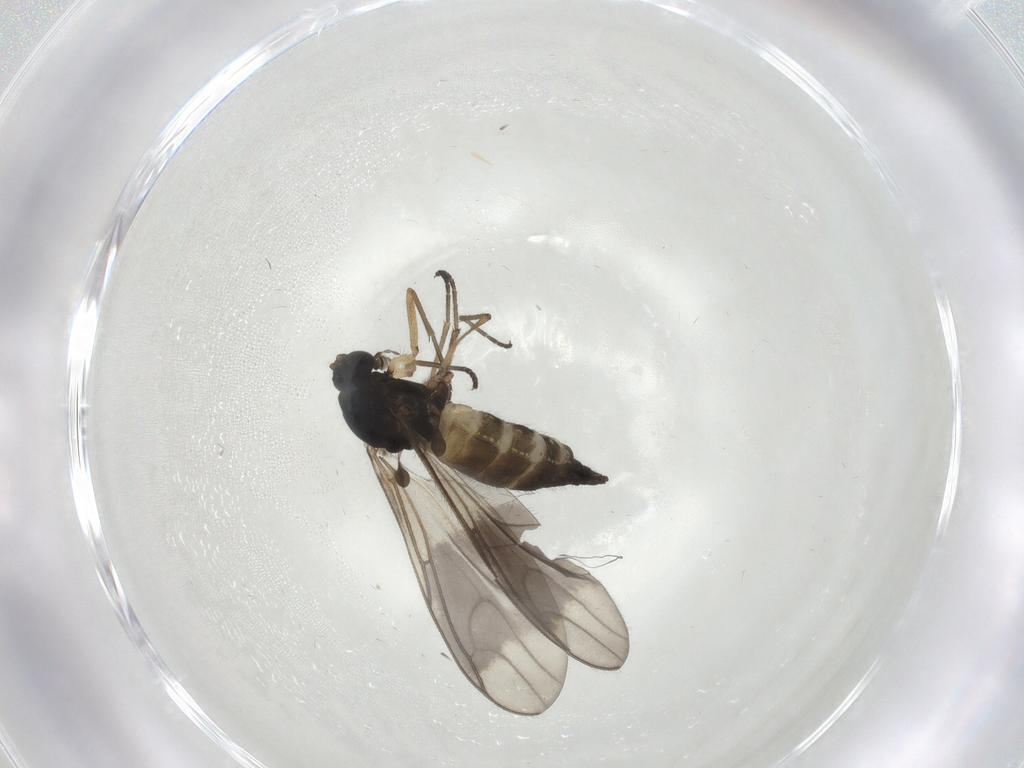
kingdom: Animalia
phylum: Arthropoda
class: Insecta
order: Diptera
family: Sciaridae
